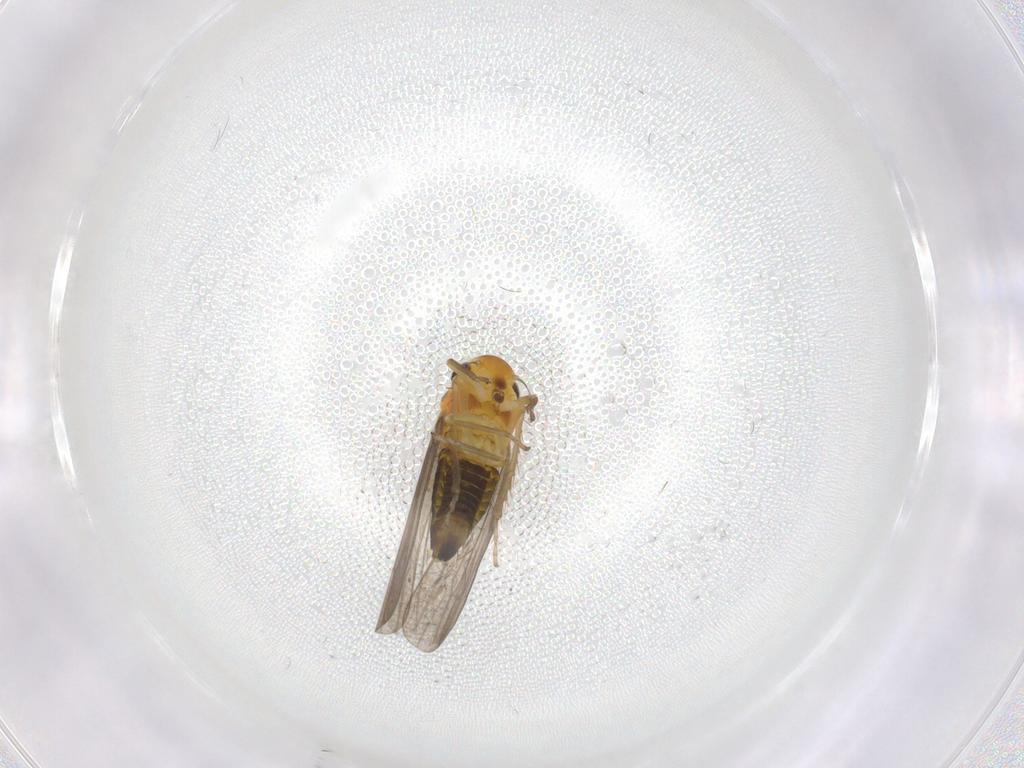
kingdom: Animalia
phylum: Arthropoda
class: Insecta
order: Hemiptera
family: Cicadellidae
